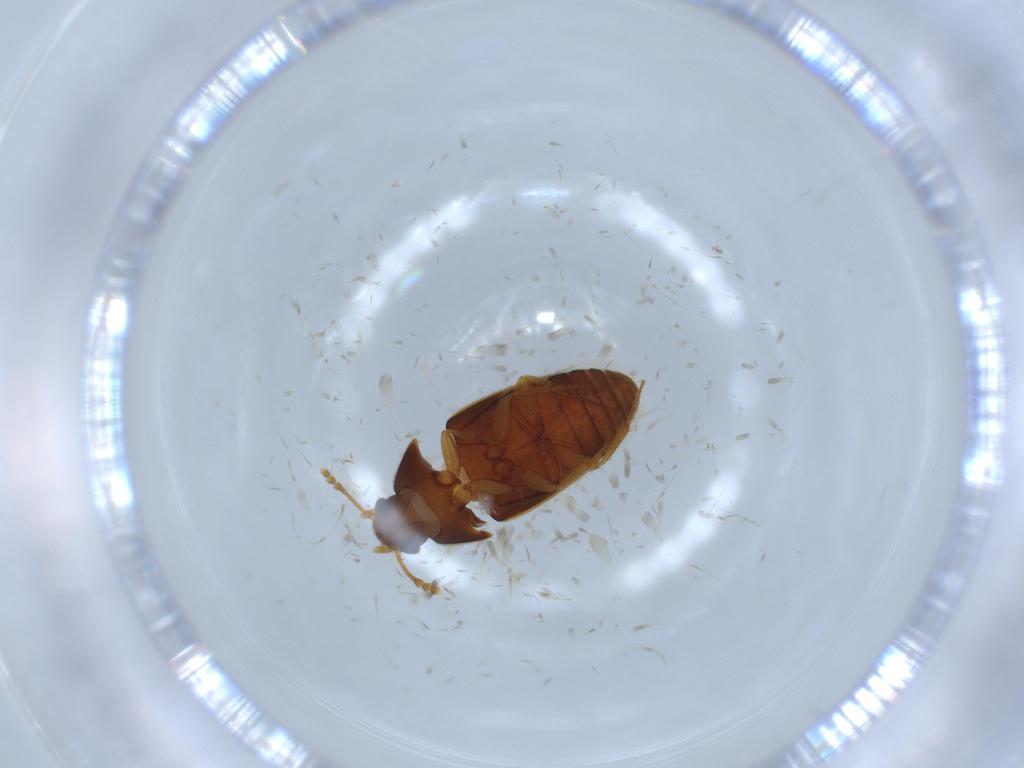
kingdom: Animalia
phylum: Arthropoda
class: Insecta
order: Coleoptera
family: Mycetophagidae
